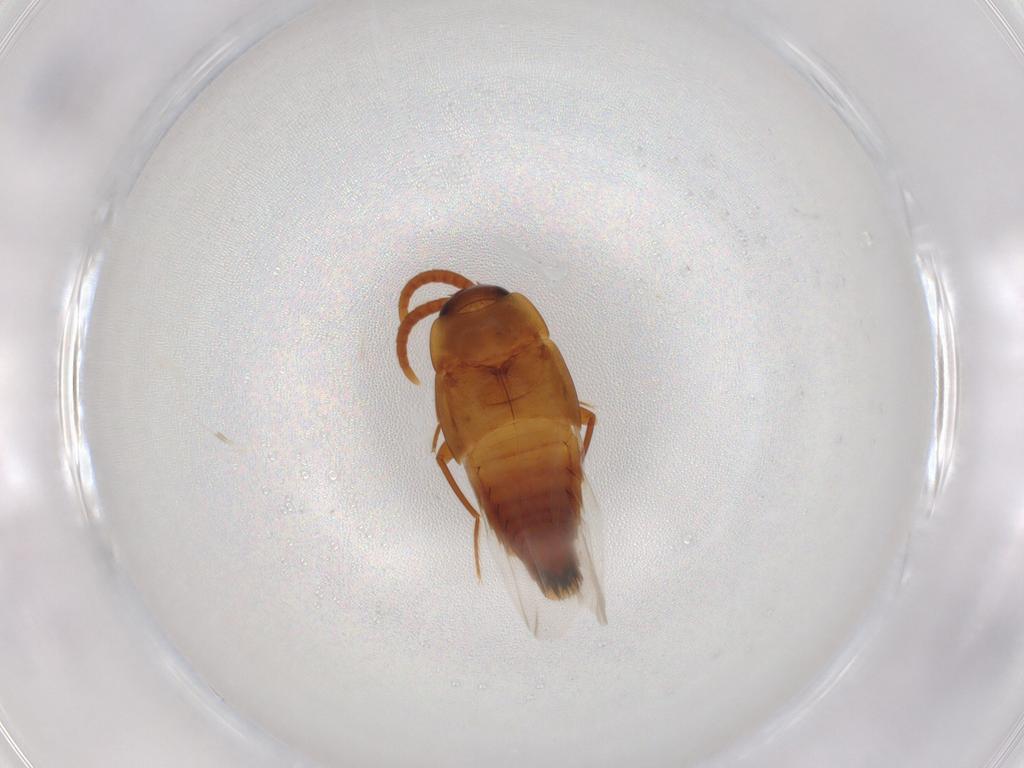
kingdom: Animalia
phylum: Arthropoda
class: Insecta
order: Coleoptera
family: Staphylinidae
